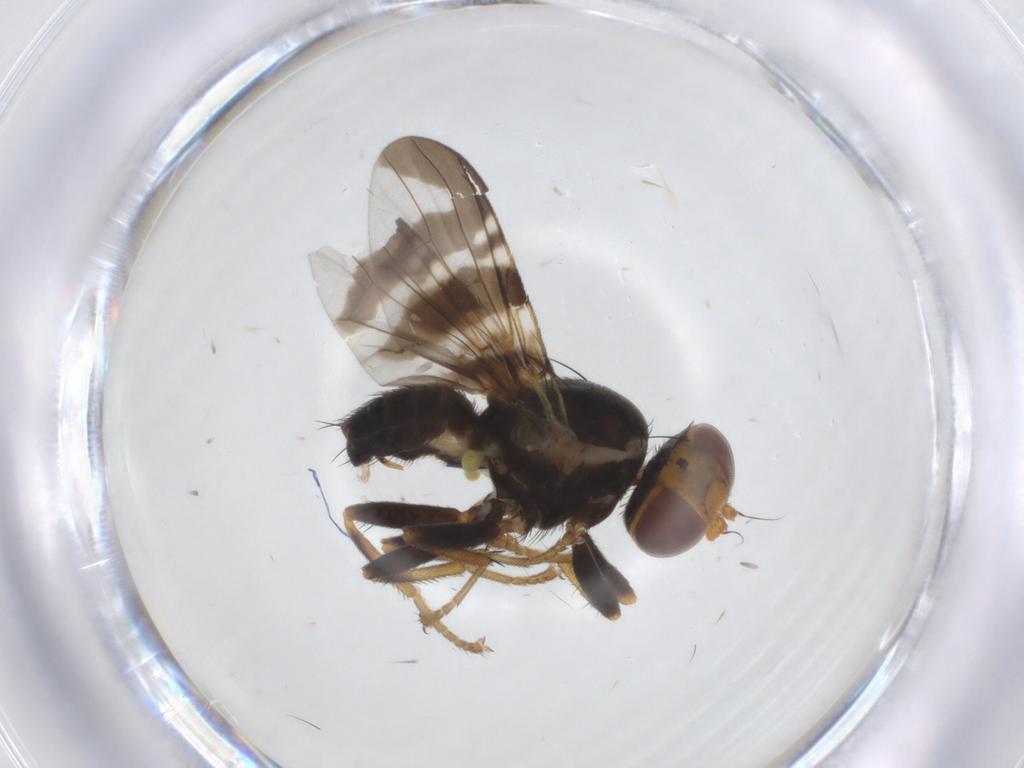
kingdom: Animalia
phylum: Arthropoda
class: Insecta
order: Diptera
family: Tephritidae
